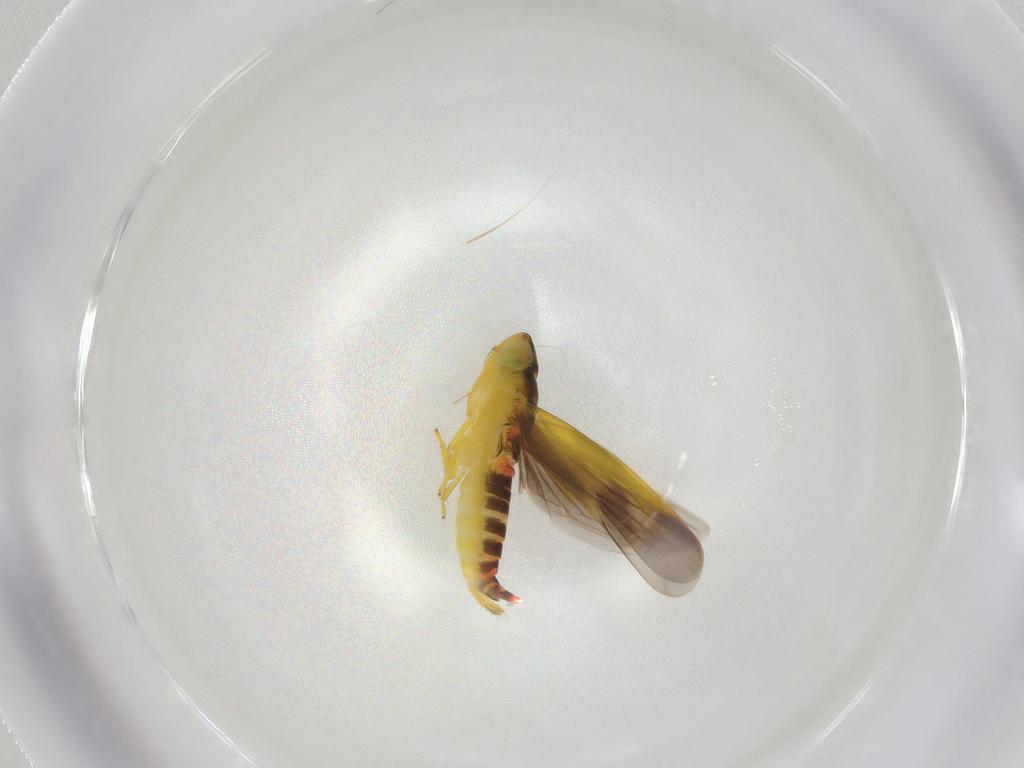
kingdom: Animalia
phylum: Arthropoda
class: Insecta
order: Hemiptera
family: Cicadellidae
